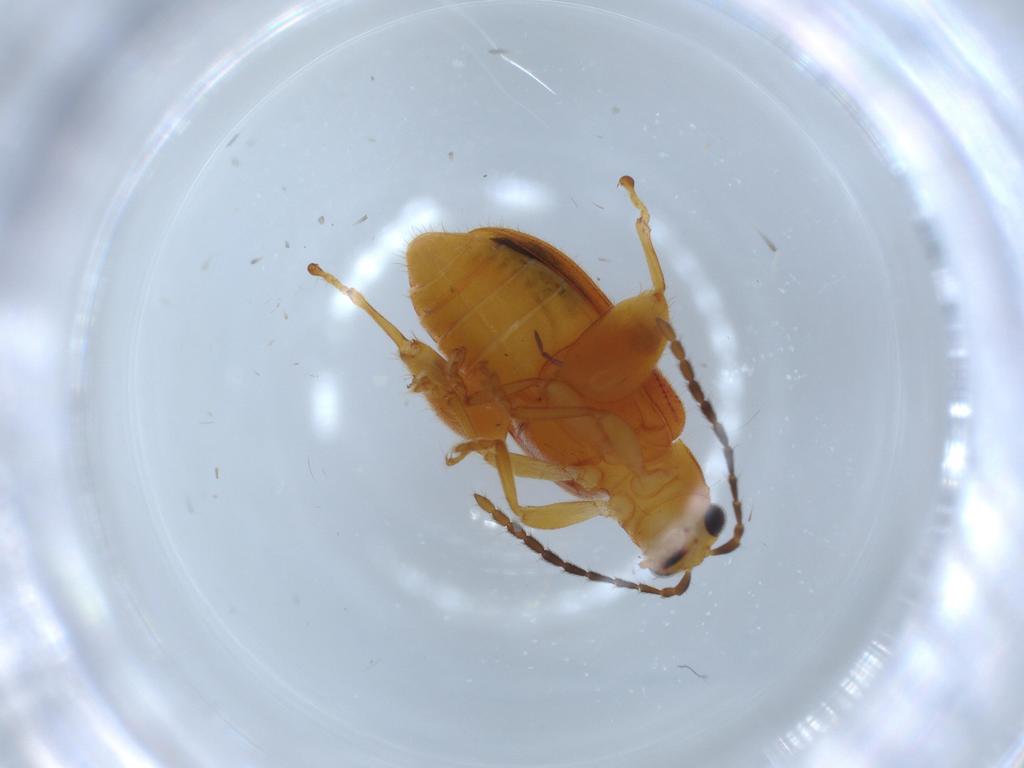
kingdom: Animalia
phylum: Arthropoda
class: Insecta
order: Coleoptera
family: Chrysomelidae
